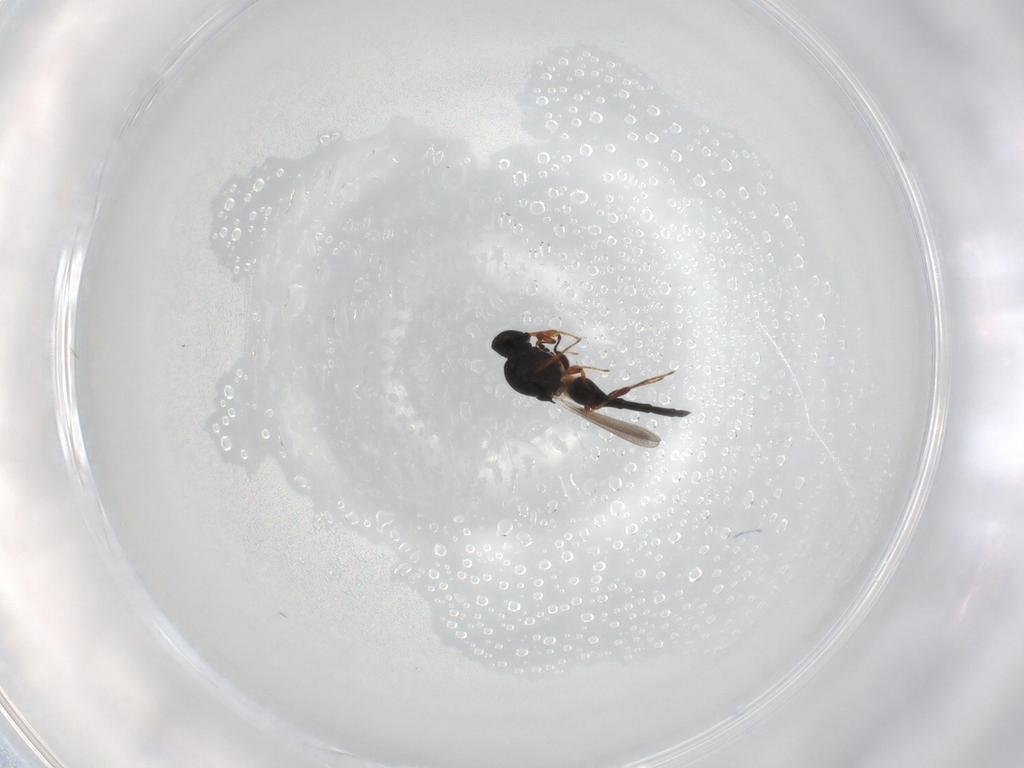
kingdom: Animalia
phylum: Arthropoda
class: Insecta
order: Hymenoptera
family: Platygastridae
